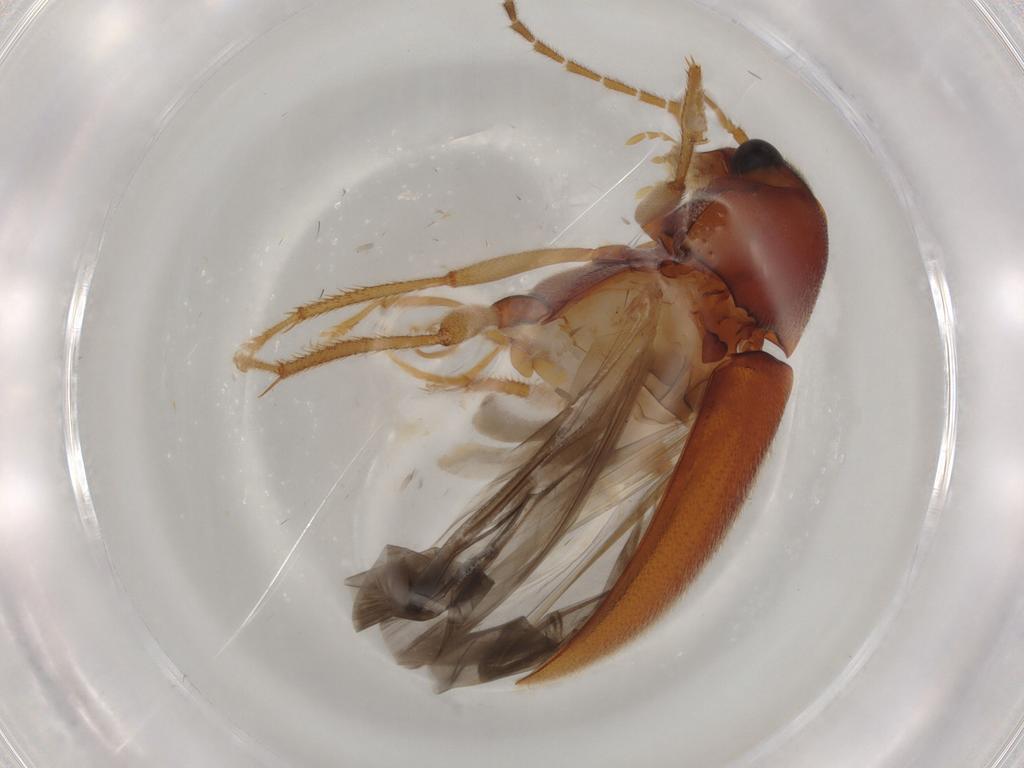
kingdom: Animalia
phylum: Arthropoda
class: Insecta
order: Coleoptera
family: Ptilodactylidae
